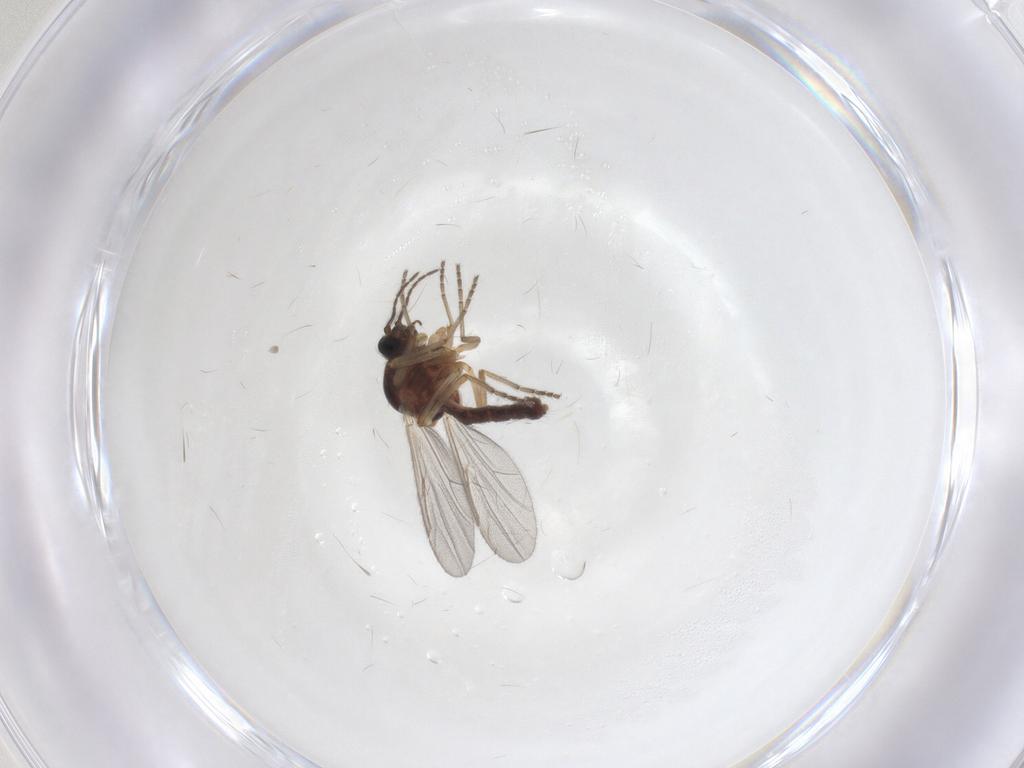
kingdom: Animalia
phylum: Arthropoda
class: Insecta
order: Diptera
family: Ceratopogonidae
